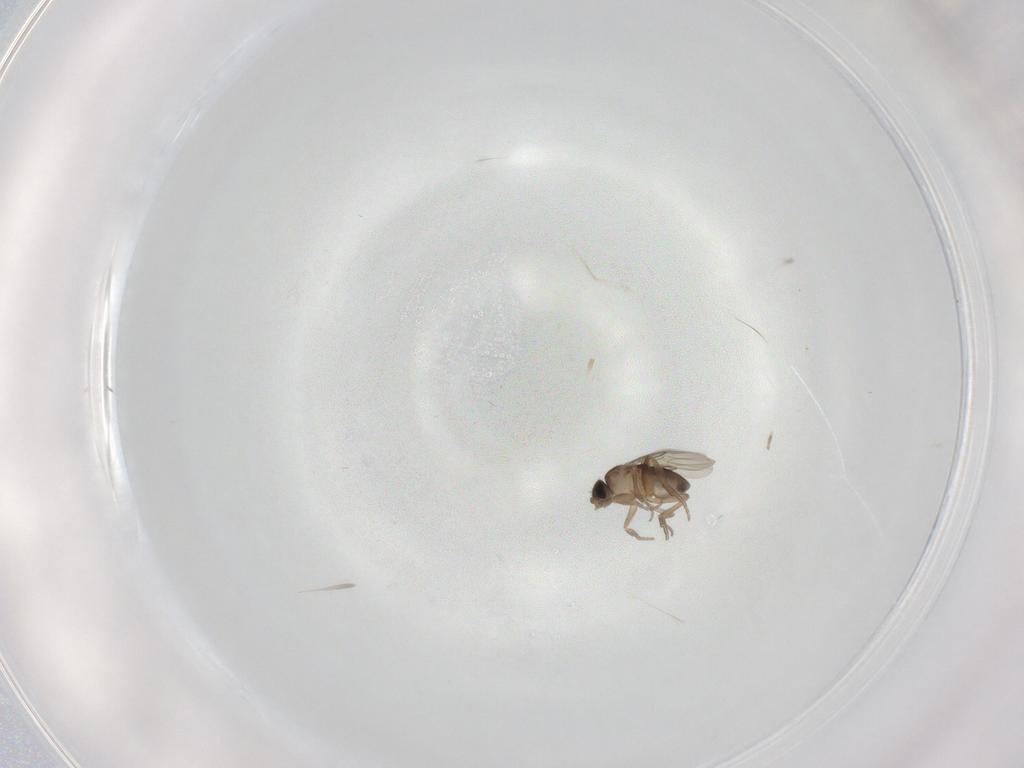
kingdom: Animalia
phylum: Arthropoda
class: Insecta
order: Diptera
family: Phoridae
